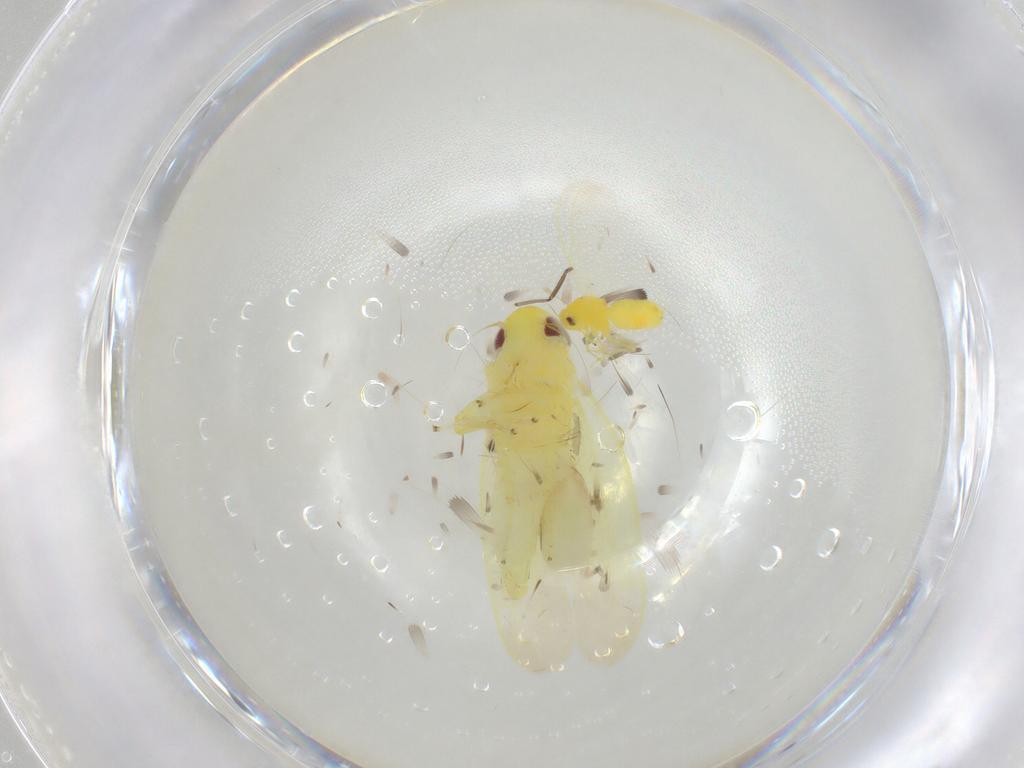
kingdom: Animalia
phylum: Arthropoda
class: Insecta
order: Hemiptera
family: Cicadellidae
